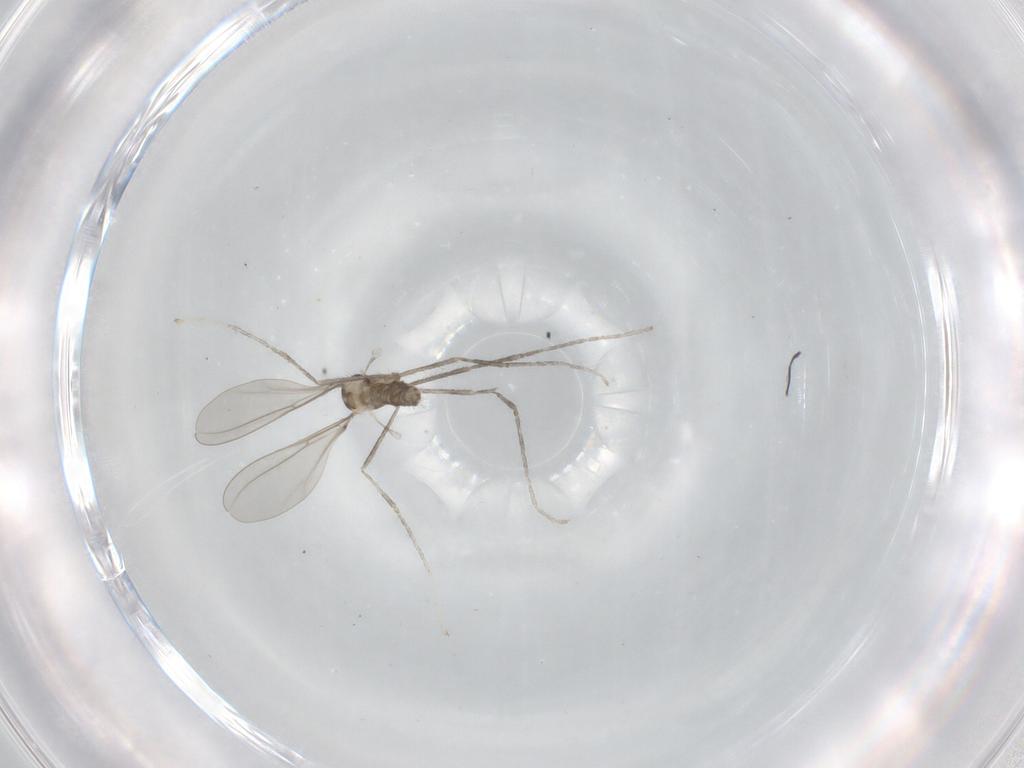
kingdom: Animalia
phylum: Arthropoda
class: Insecta
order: Diptera
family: Cecidomyiidae
